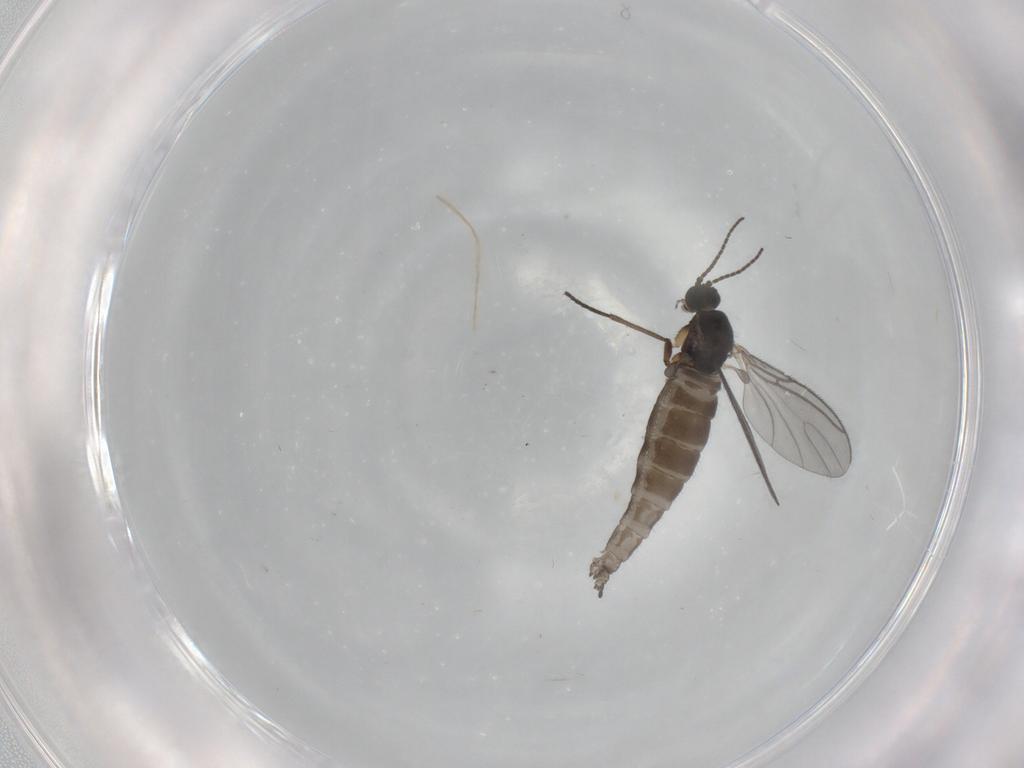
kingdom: Animalia
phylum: Arthropoda
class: Insecta
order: Diptera
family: Sciaridae
